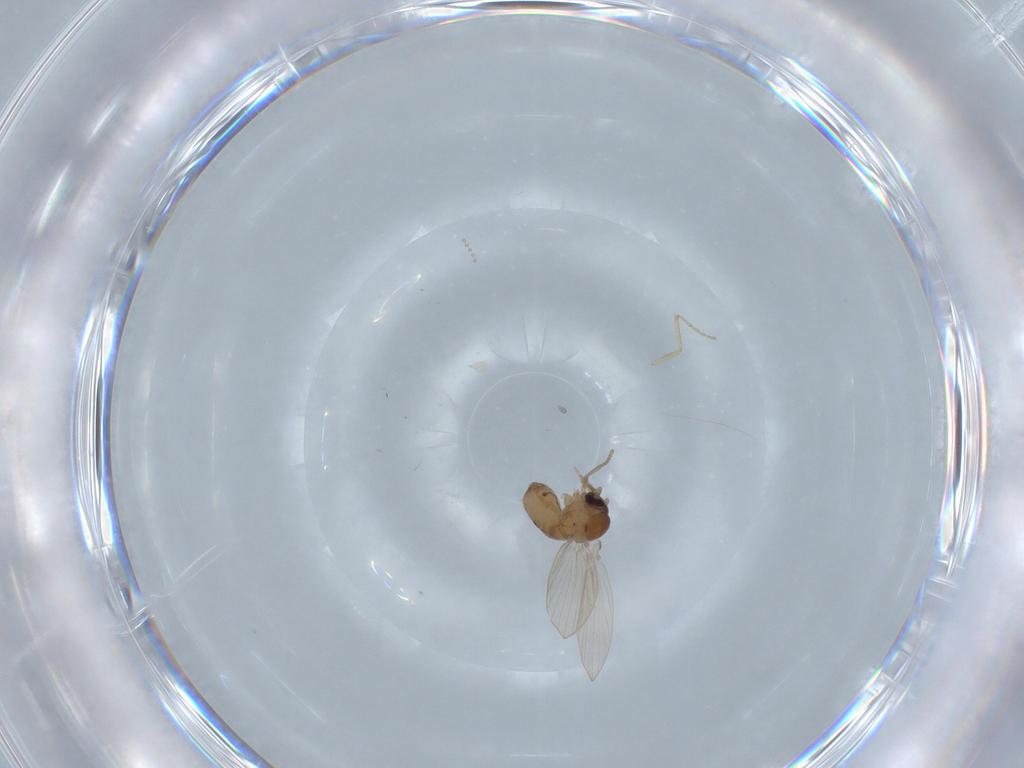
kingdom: Animalia
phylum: Arthropoda
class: Insecta
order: Diptera
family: Psychodidae
